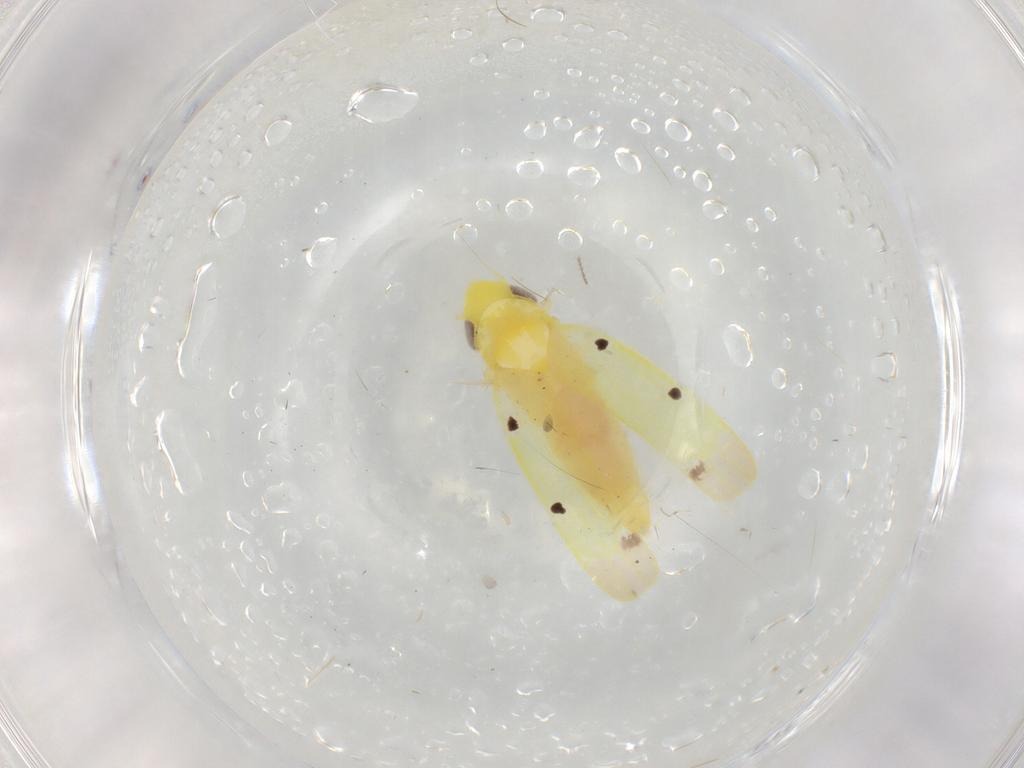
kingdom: Animalia
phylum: Arthropoda
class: Insecta
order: Hemiptera
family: Cicadellidae
